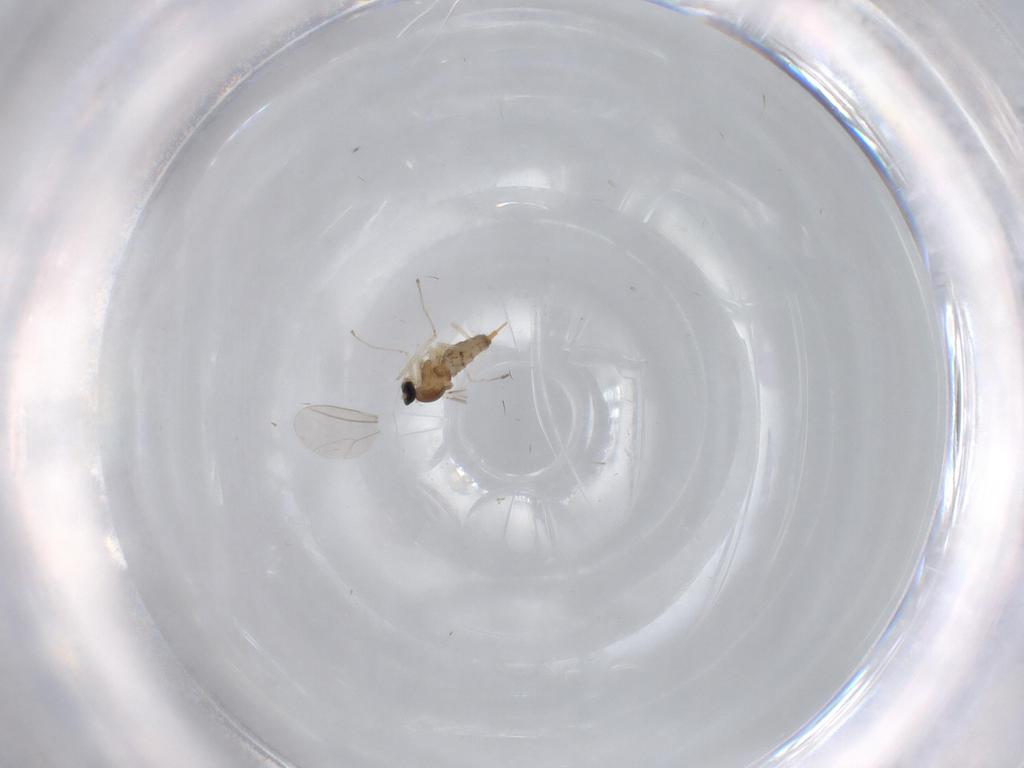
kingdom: Animalia
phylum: Arthropoda
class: Insecta
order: Diptera
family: Cecidomyiidae
